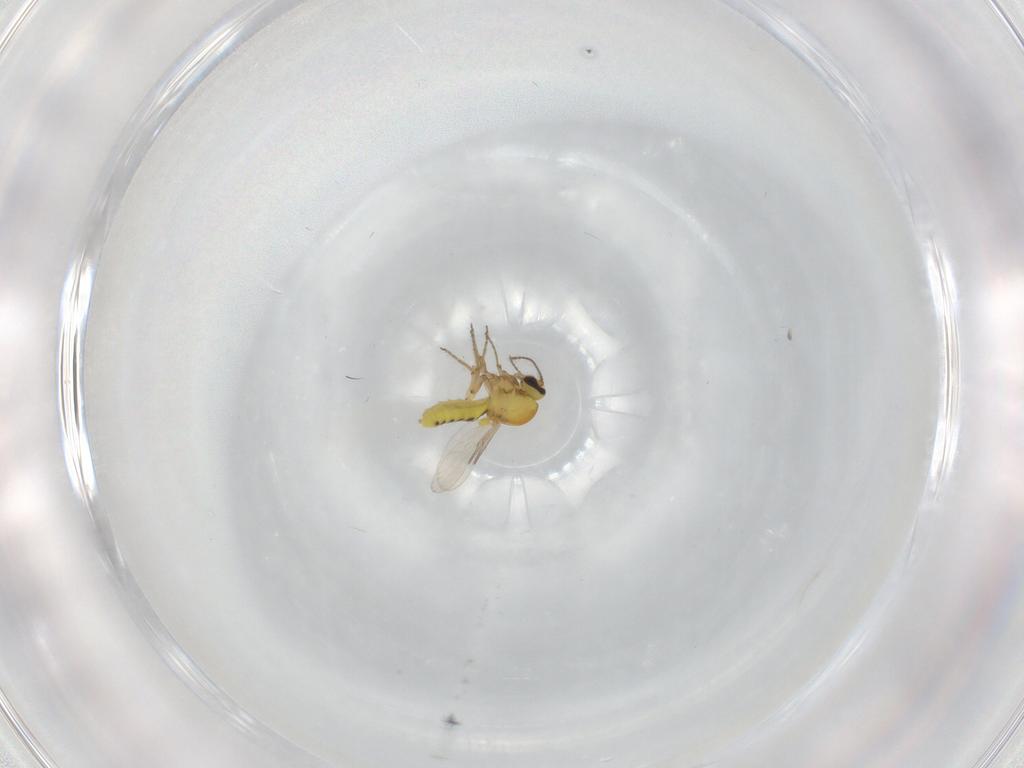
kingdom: Animalia
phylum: Arthropoda
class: Insecta
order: Diptera
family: Ceratopogonidae
